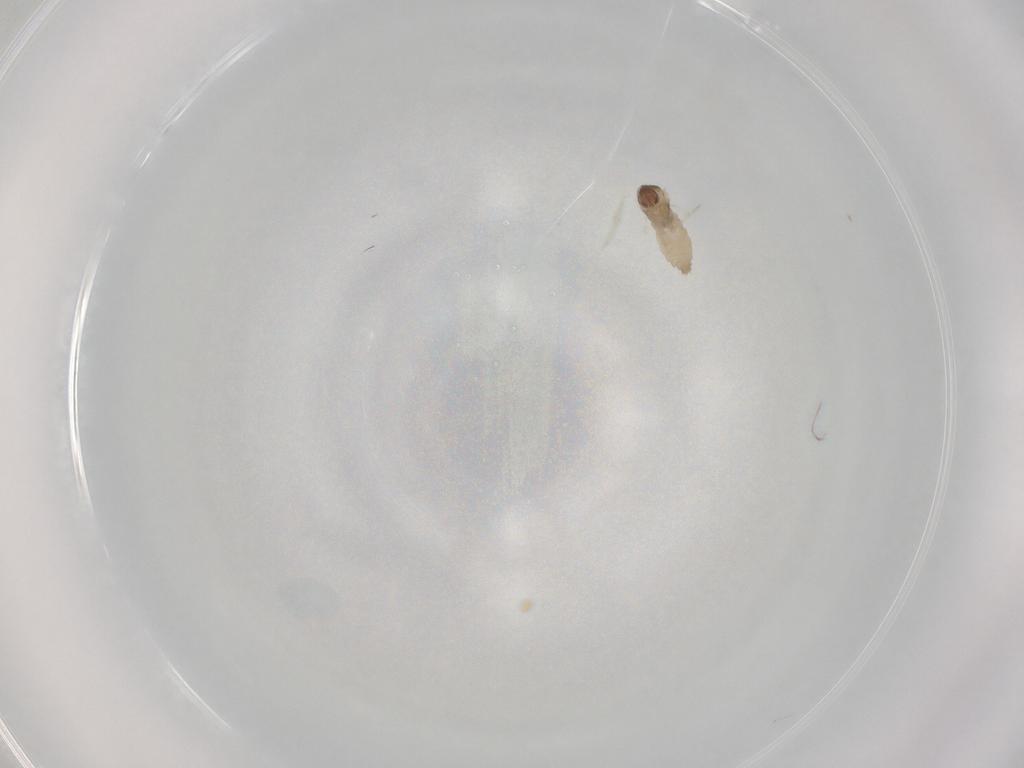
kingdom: Animalia
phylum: Arthropoda
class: Insecta
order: Diptera
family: Cecidomyiidae
